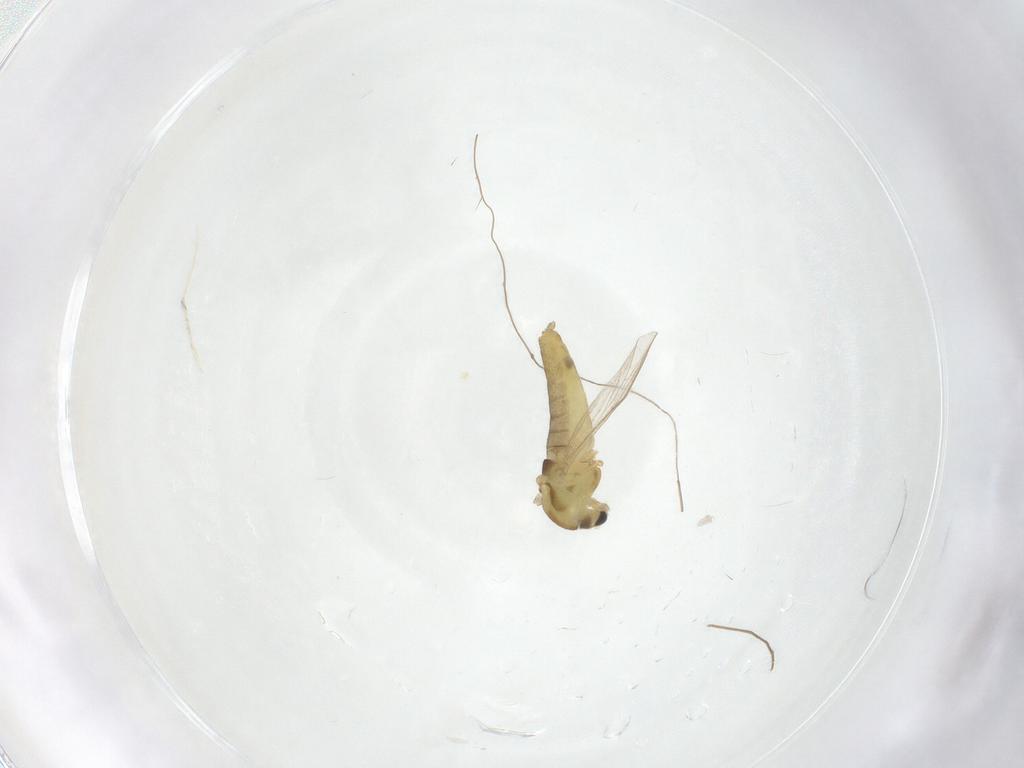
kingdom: Animalia
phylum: Arthropoda
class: Insecta
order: Diptera
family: Chironomidae
